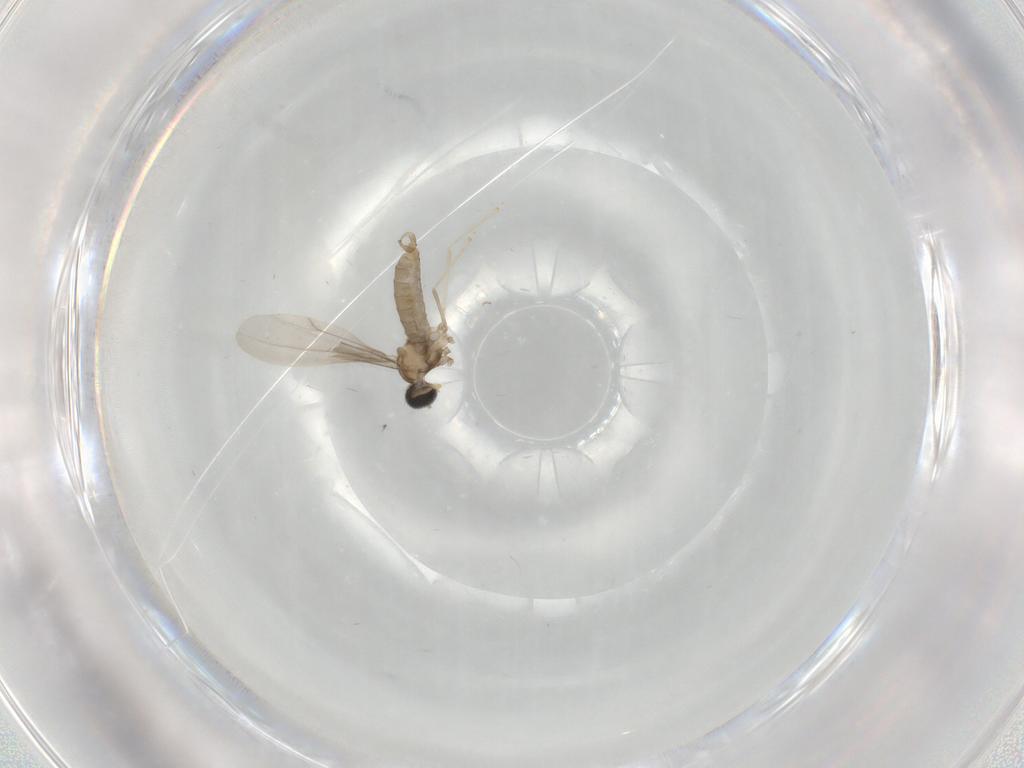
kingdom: Animalia
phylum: Arthropoda
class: Insecta
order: Diptera
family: Cecidomyiidae
